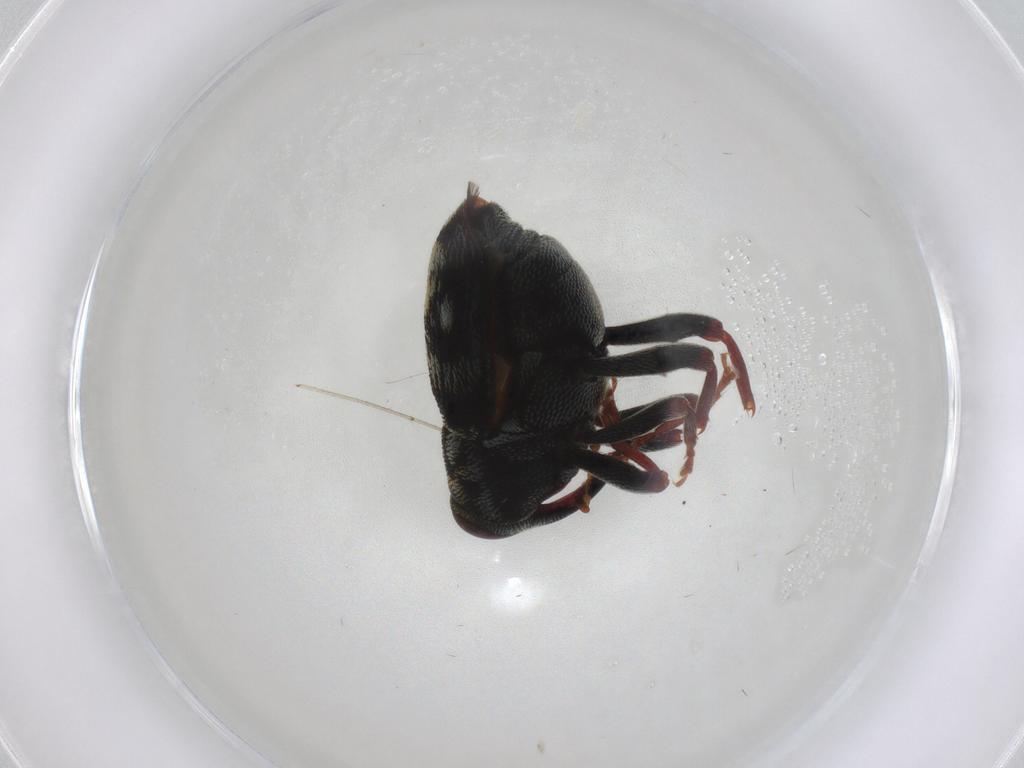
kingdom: Animalia
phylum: Arthropoda
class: Insecta
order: Coleoptera
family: Curculionidae
